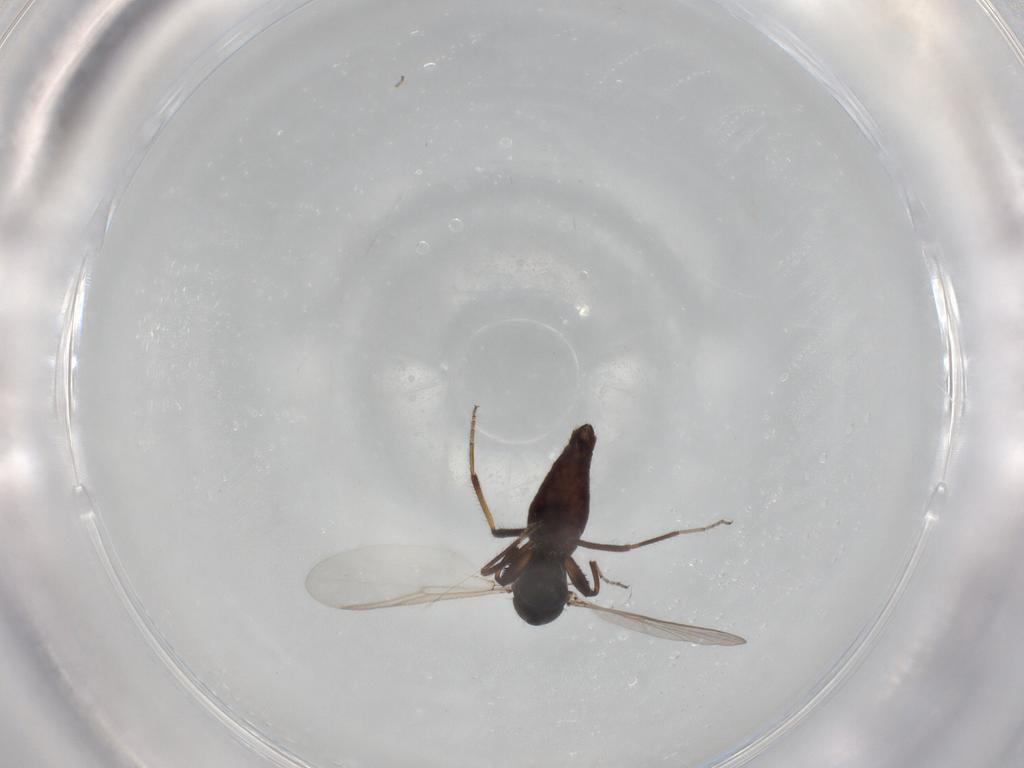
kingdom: Animalia
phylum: Arthropoda
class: Insecta
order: Diptera
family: Ceratopogonidae
